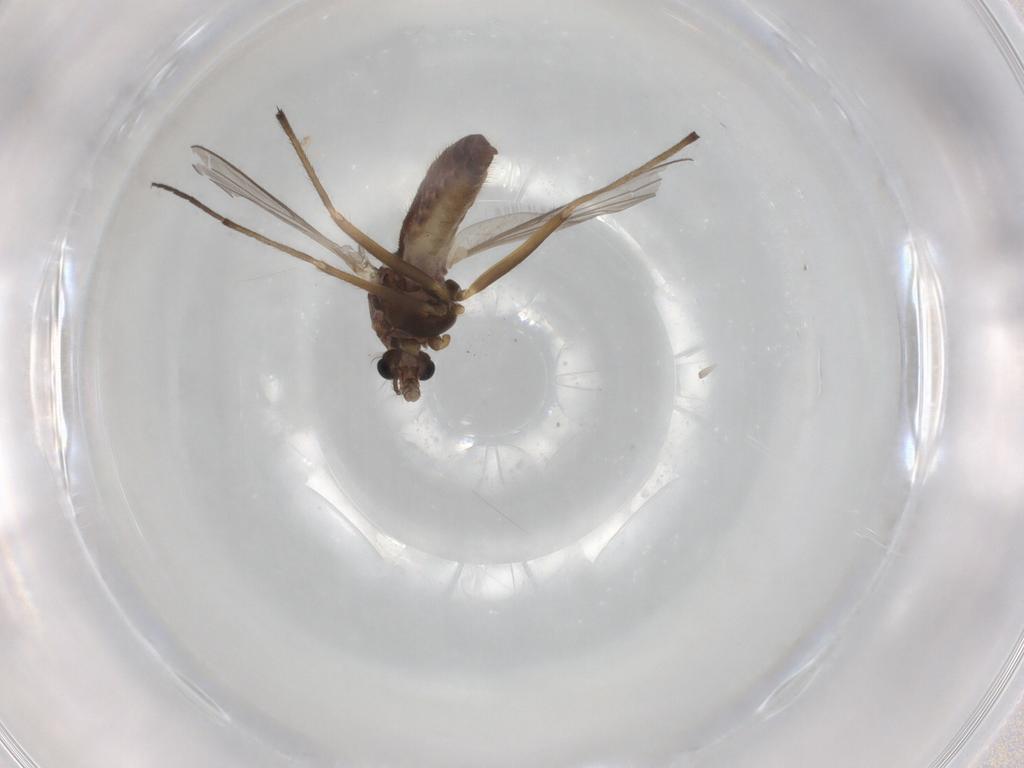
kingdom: Animalia
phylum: Arthropoda
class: Insecta
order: Diptera
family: Chironomidae
